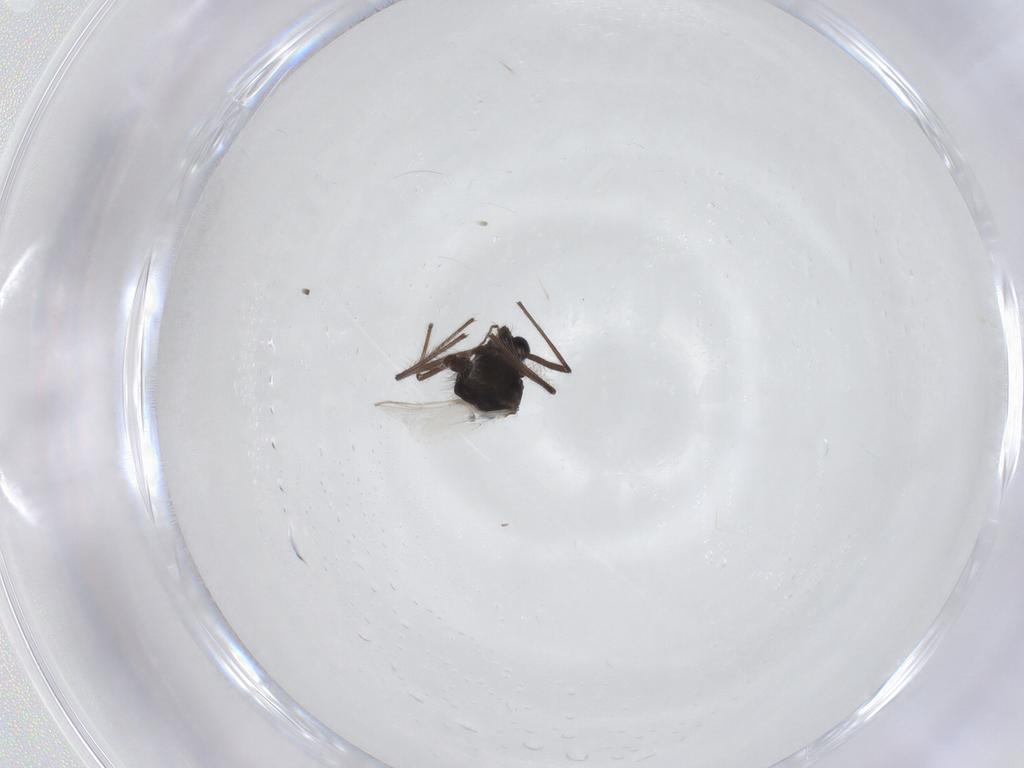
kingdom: Animalia
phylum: Arthropoda
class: Insecta
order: Diptera
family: Chironomidae
